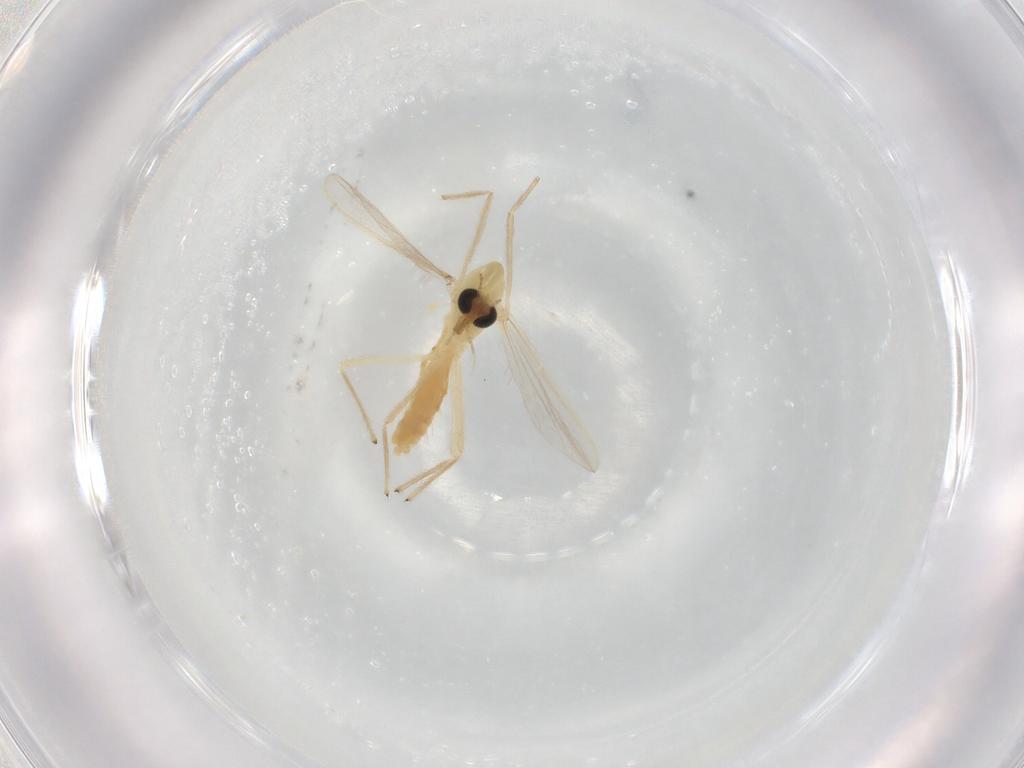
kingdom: Animalia
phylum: Arthropoda
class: Insecta
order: Diptera
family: Chironomidae
